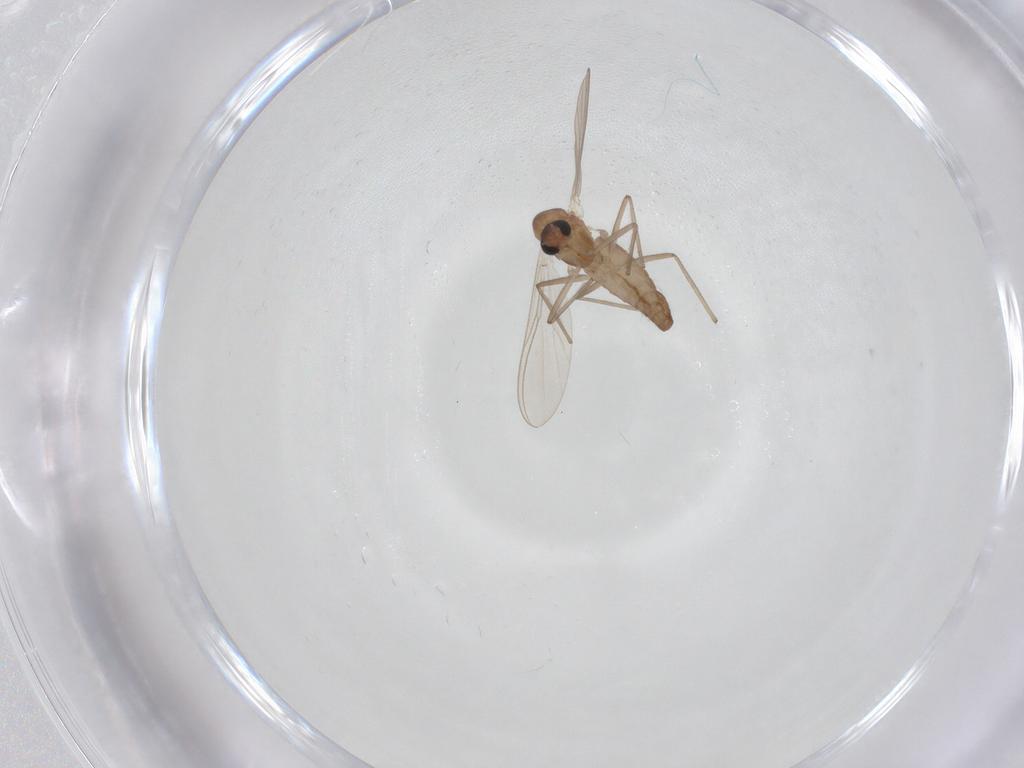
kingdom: Animalia
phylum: Arthropoda
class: Insecta
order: Diptera
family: Chironomidae
